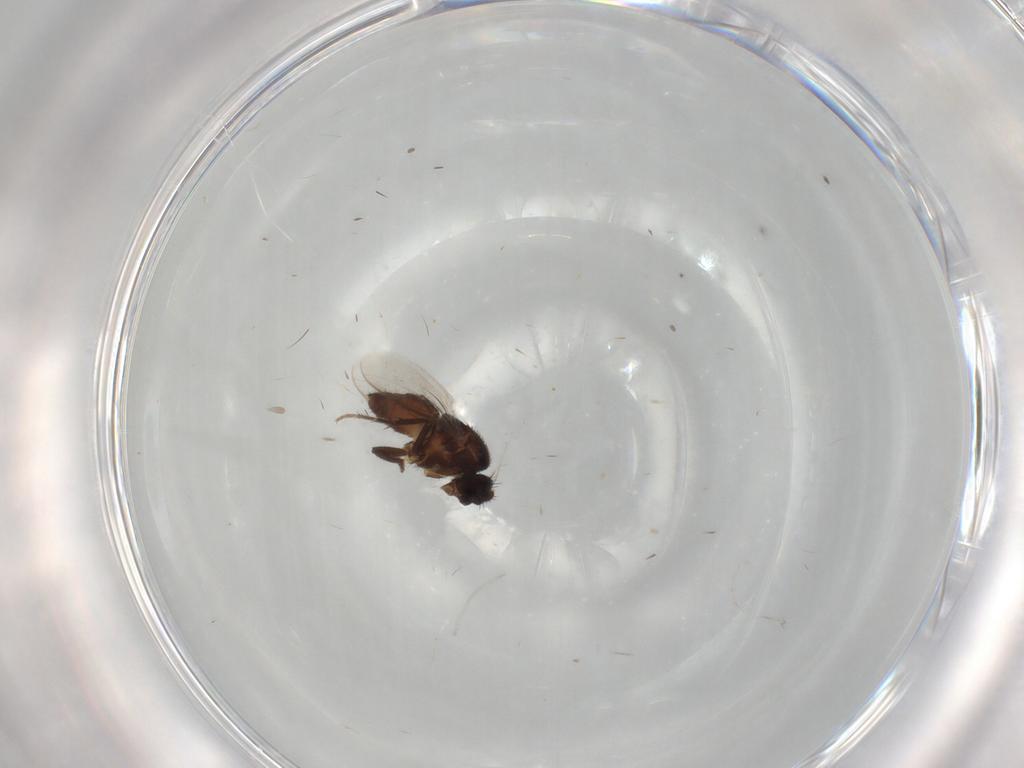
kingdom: Animalia
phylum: Arthropoda
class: Insecta
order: Diptera
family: Sphaeroceridae
